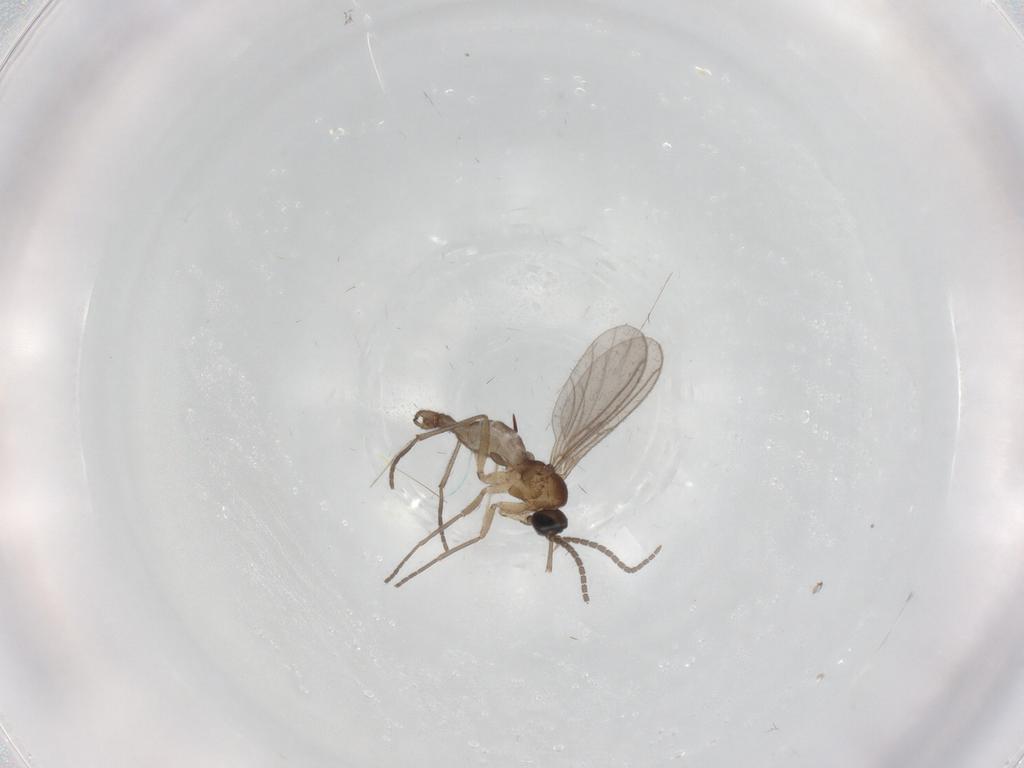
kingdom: Animalia
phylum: Arthropoda
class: Insecta
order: Diptera
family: Sciaridae
